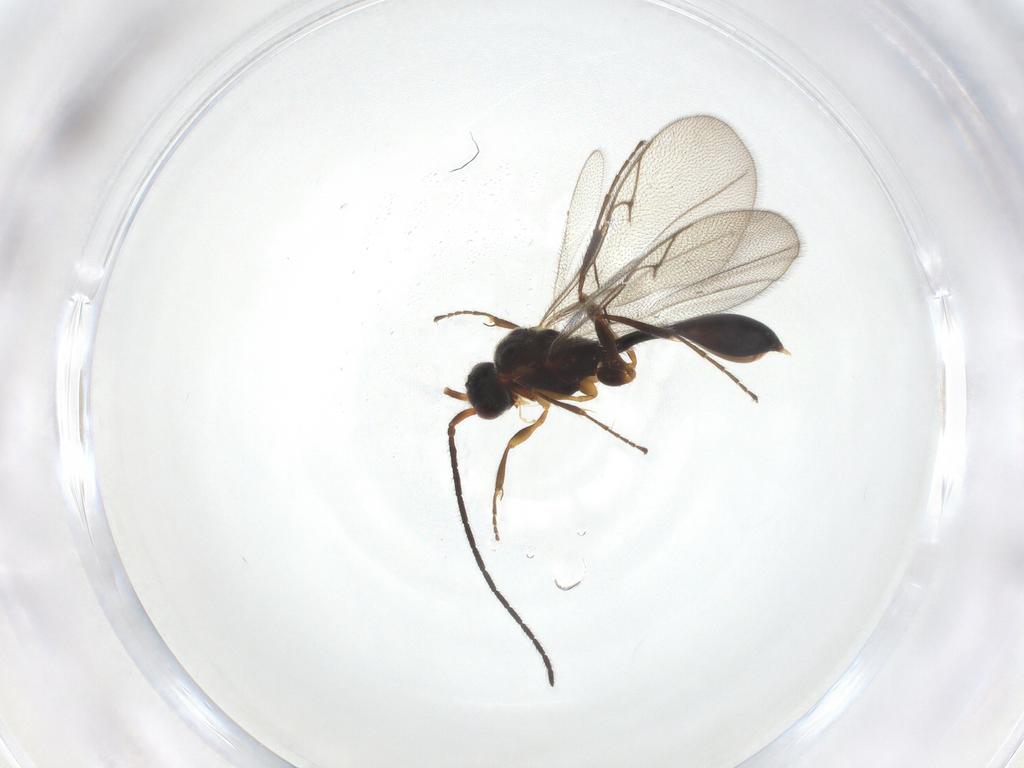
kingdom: Animalia
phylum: Arthropoda
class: Insecta
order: Hymenoptera
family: Diapriidae
